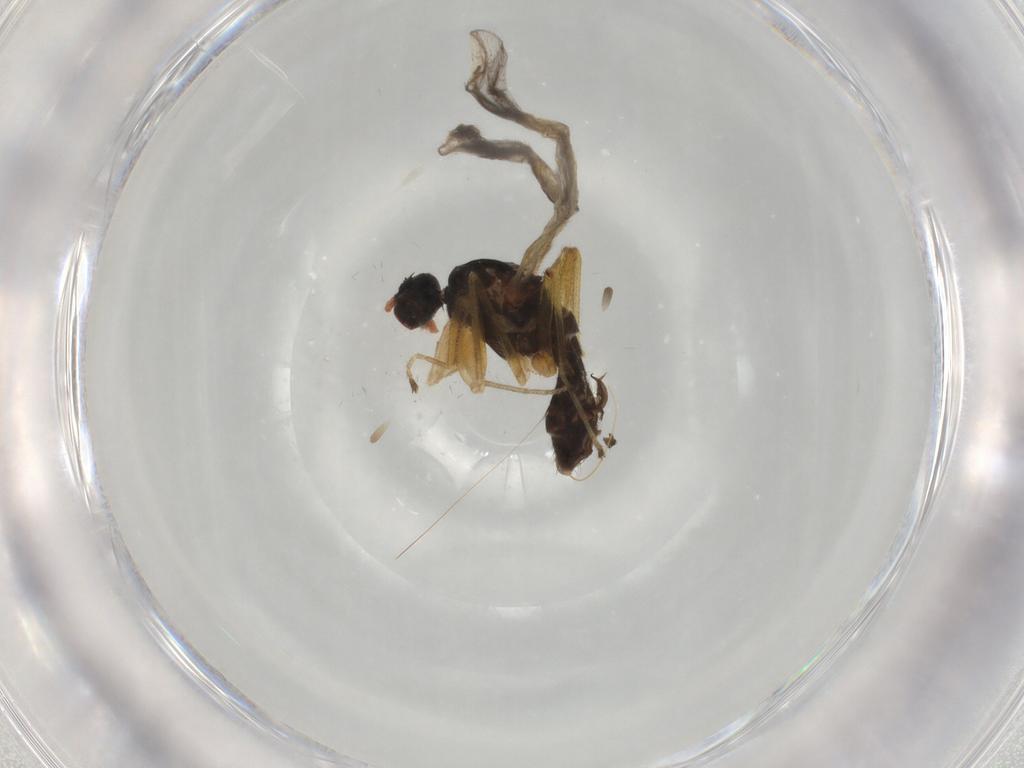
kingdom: Animalia
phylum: Arthropoda
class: Insecta
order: Diptera
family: Empididae
